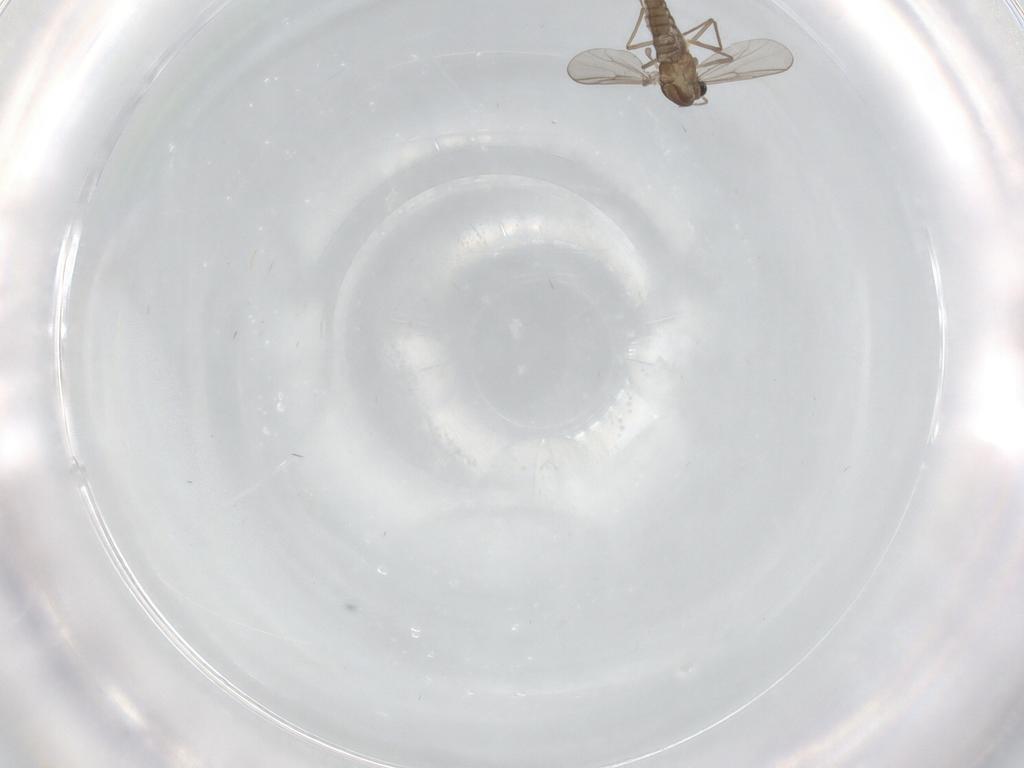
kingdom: Animalia
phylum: Arthropoda
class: Insecta
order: Diptera
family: Chironomidae
